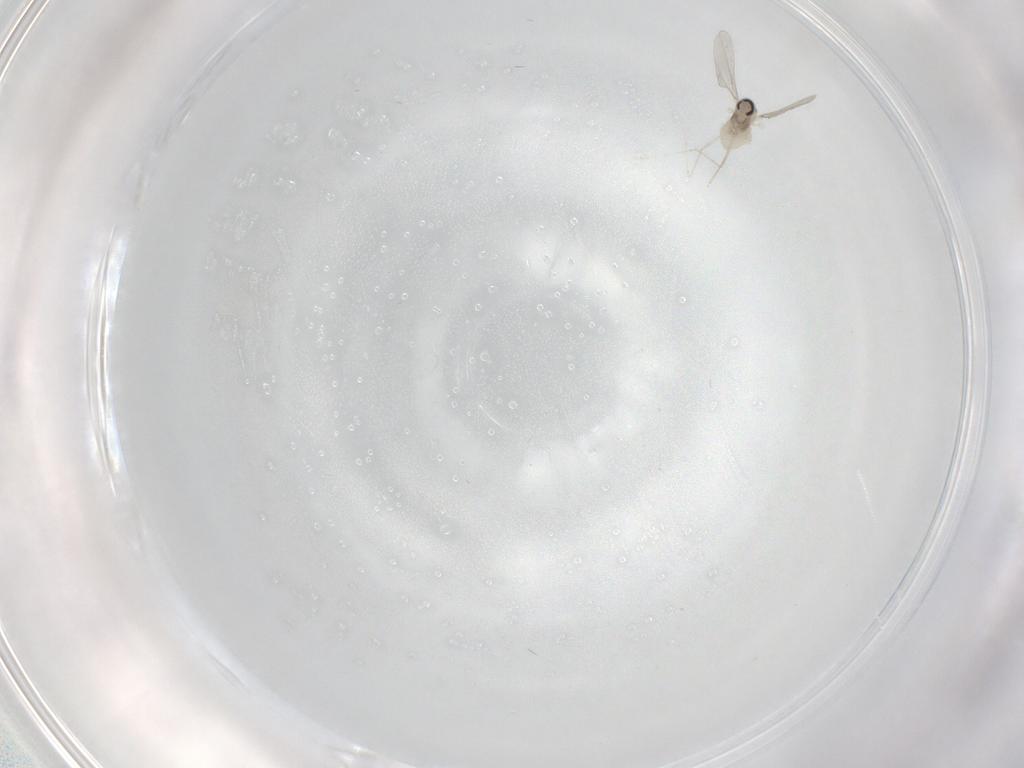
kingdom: Animalia
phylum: Arthropoda
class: Insecta
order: Diptera
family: Cecidomyiidae
